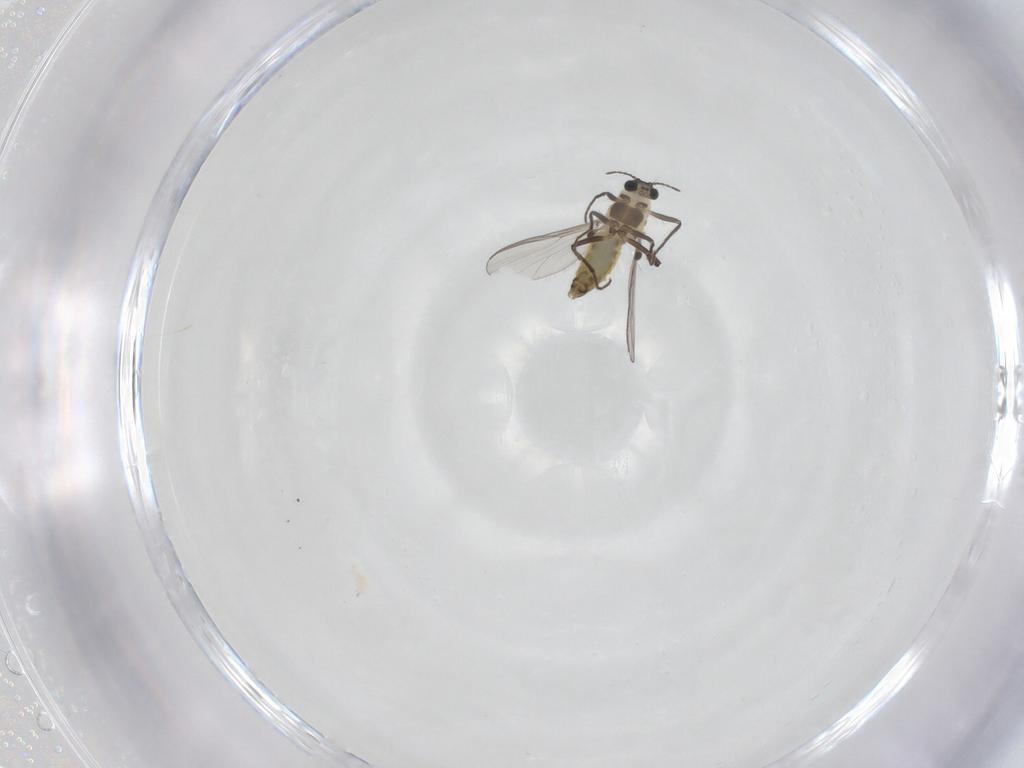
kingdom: Animalia
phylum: Arthropoda
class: Insecta
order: Diptera
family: Chironomidae
